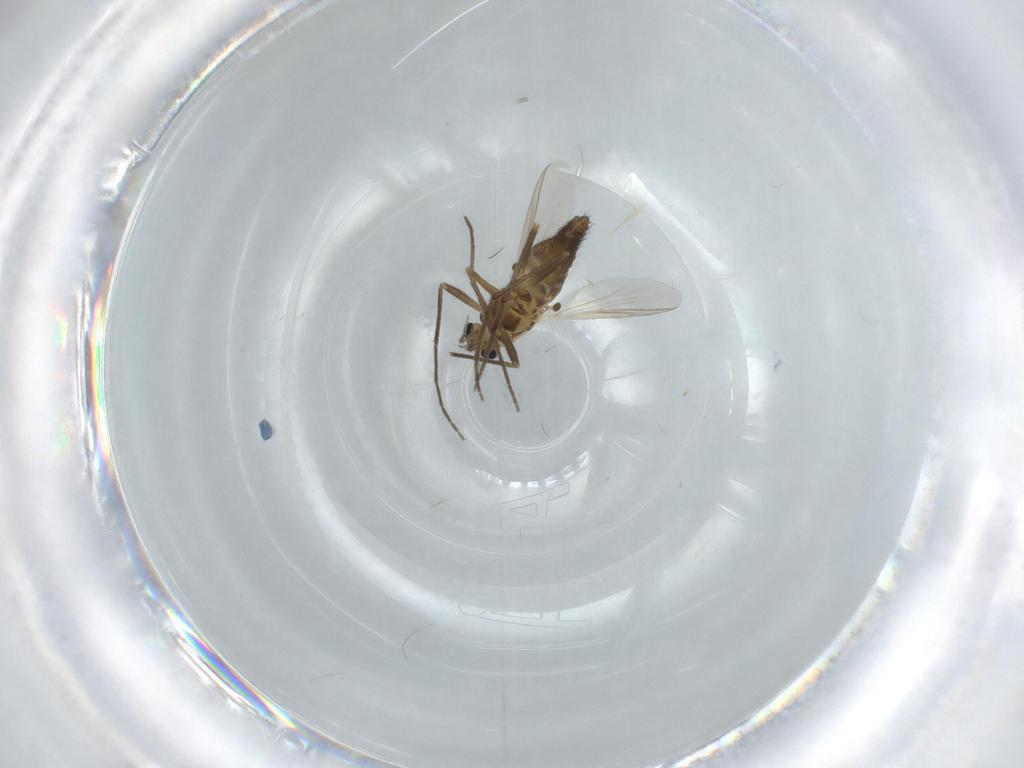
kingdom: Animalia
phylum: Arthropoda
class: Insecta
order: Diptera
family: Chironomidae
